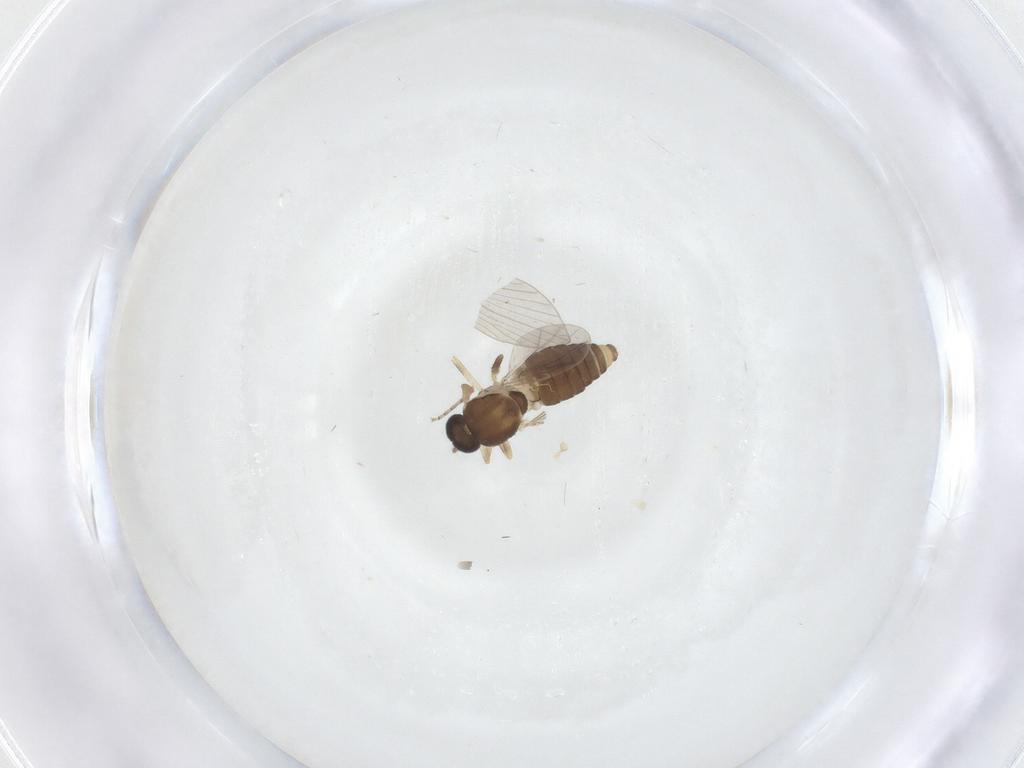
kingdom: Animalia
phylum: Arthropoda
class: Insecta
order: Diptera
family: Ceratopogonidae
